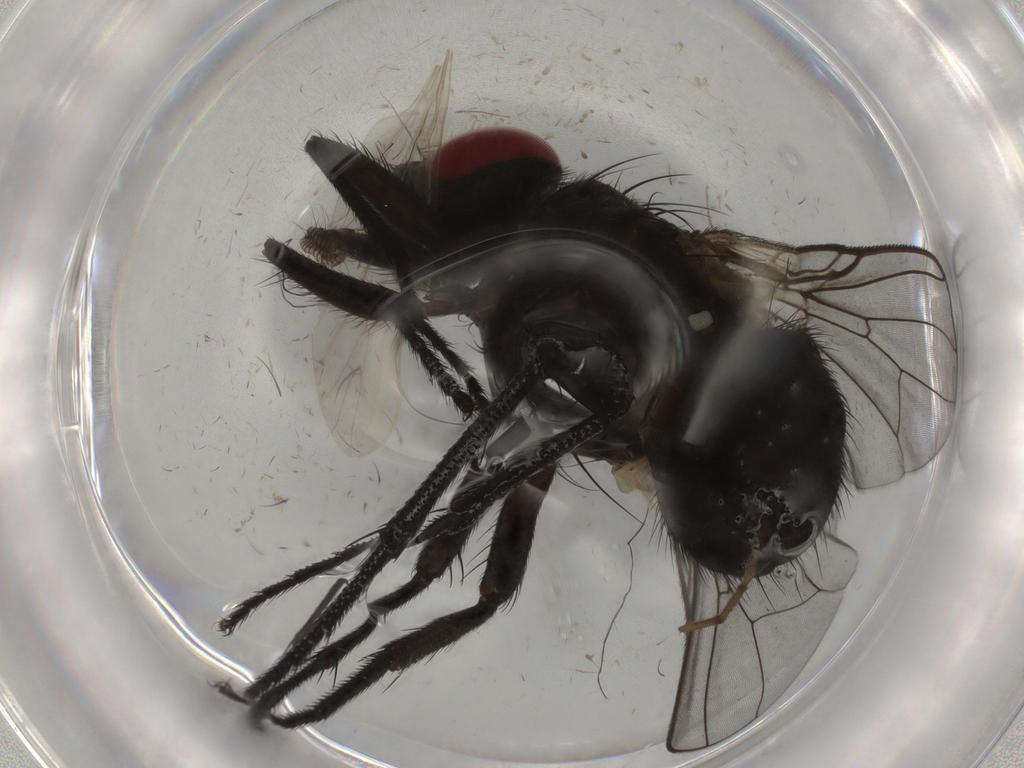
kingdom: Animalia
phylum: Arthropoda
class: Insecta
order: Diptera
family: Muscidae
